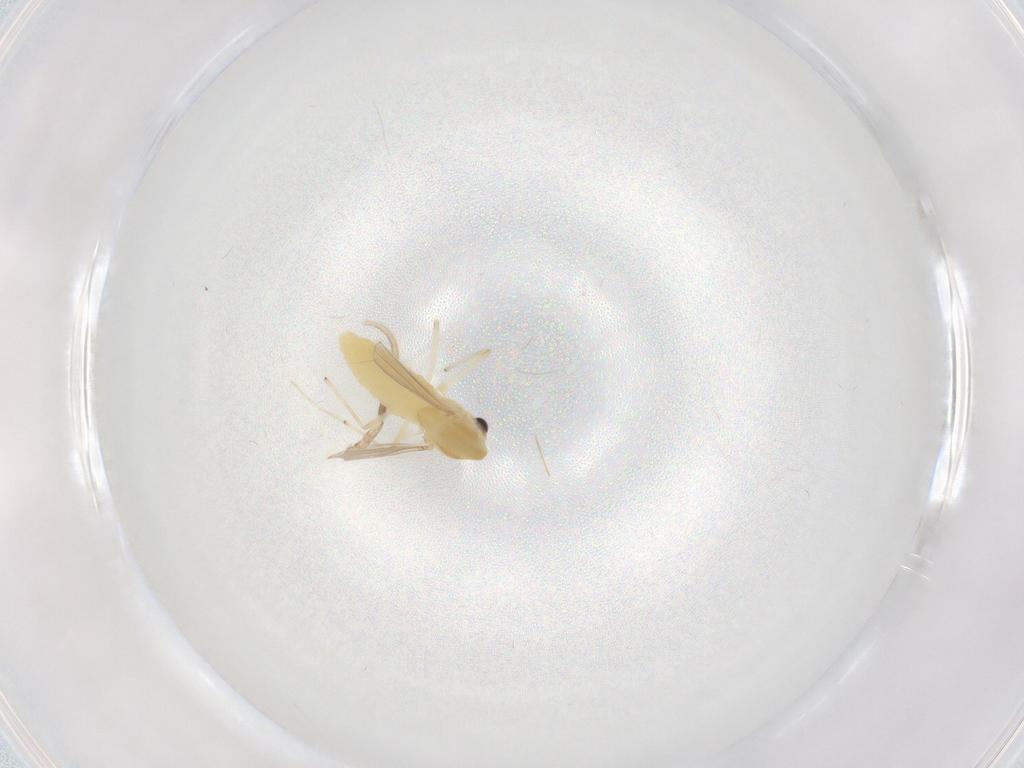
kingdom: Animalia
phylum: Arthropoda
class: Insecta
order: Diptera
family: Chironomidae
